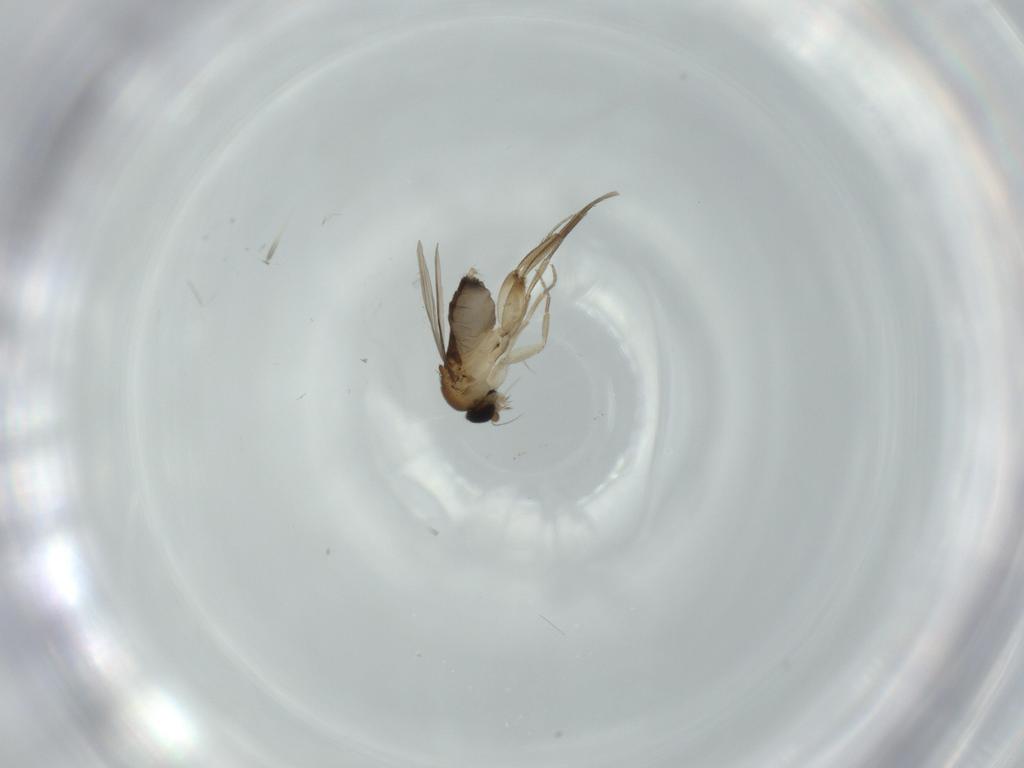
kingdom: Animalia
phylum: Arthropoda
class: Insecta
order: Diptera
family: Phoridae
